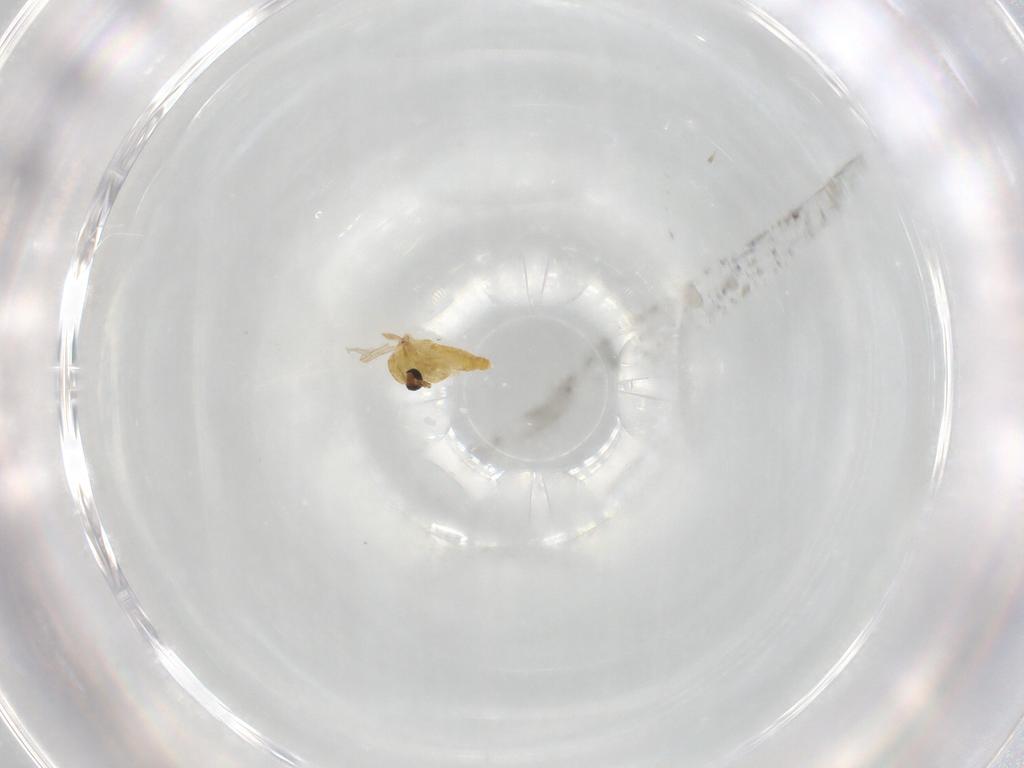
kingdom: Animalia
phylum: Arthropoda
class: Insecta
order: Diptera
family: Chironomidae
